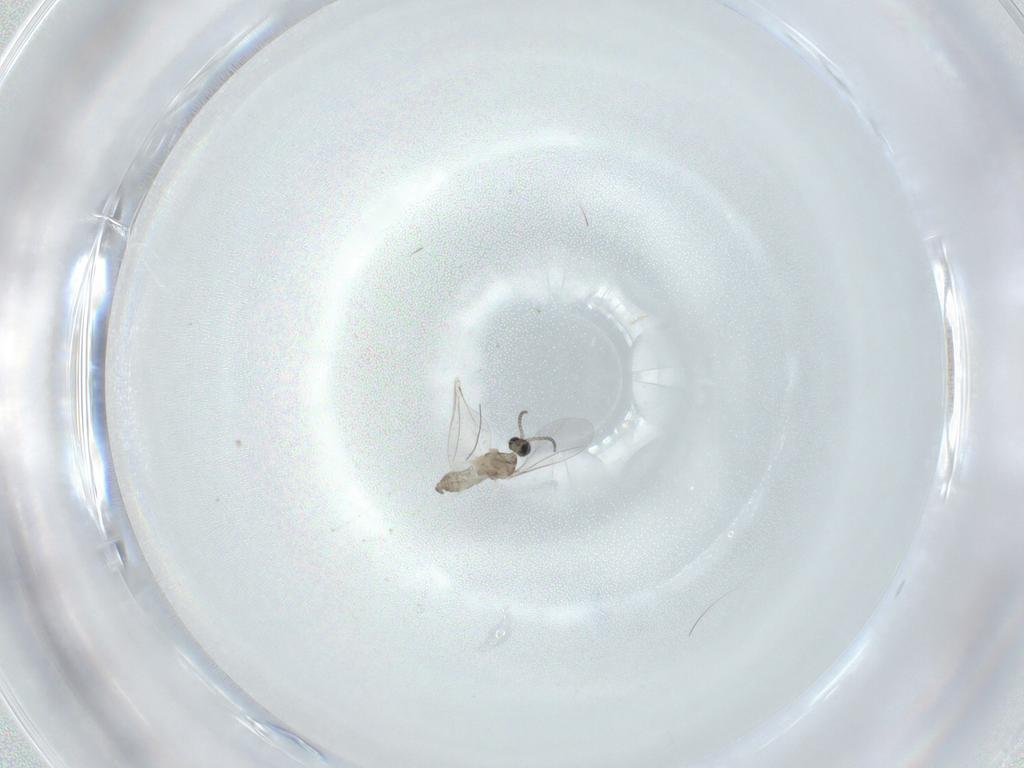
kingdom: Animalia
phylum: Arthropoda
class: Insecta
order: Diptera
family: Cecidomyiidae
